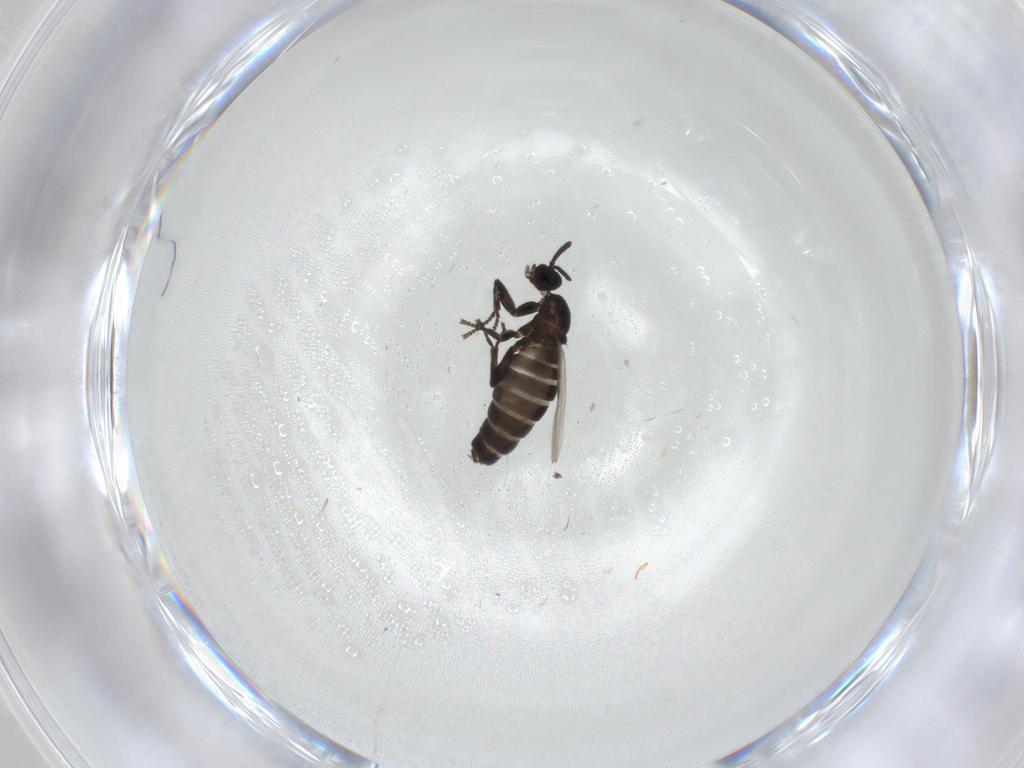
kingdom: Animalia
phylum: Arthropoda
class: Insecta
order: Diptera
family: Scatopsidae
